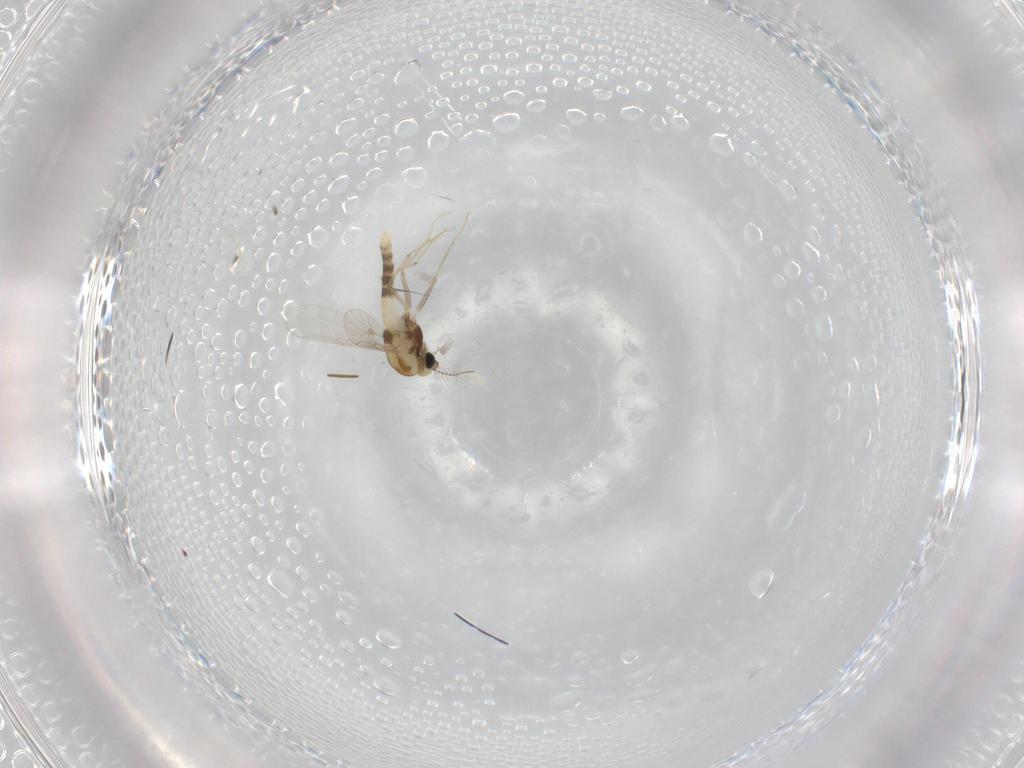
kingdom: Animalia
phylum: Arthropoda
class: Insecta
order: Diptera
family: Chironomidae
